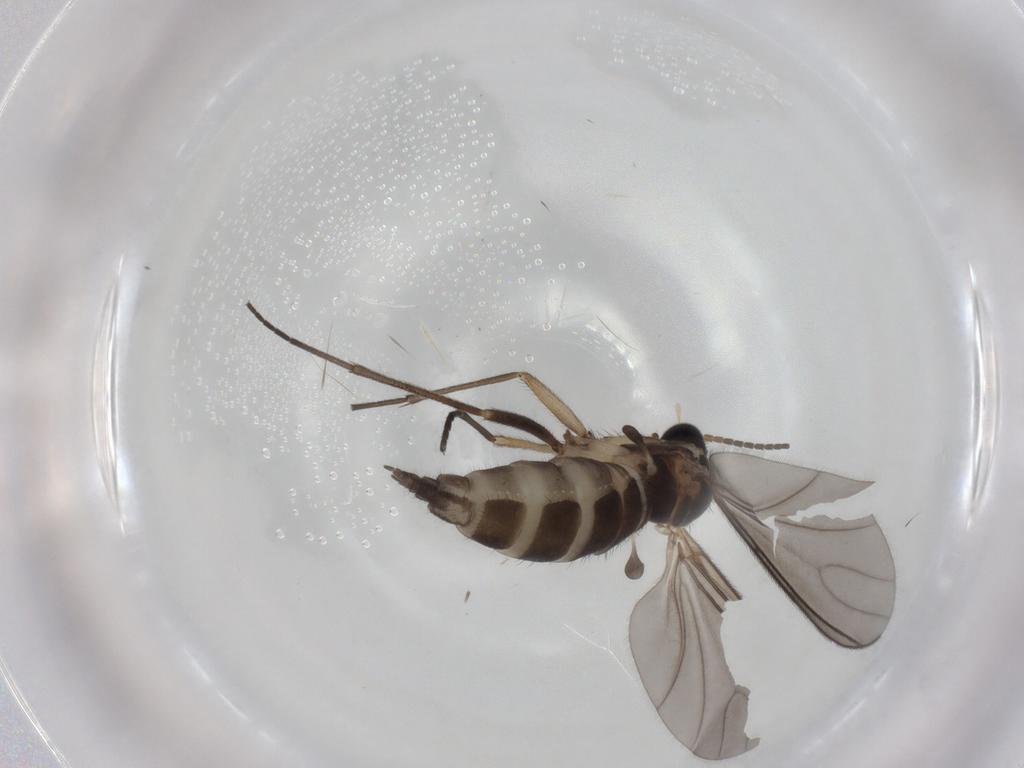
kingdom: Animalia
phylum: Arthropoda
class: Insecta
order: Diptera
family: Sciaridae
